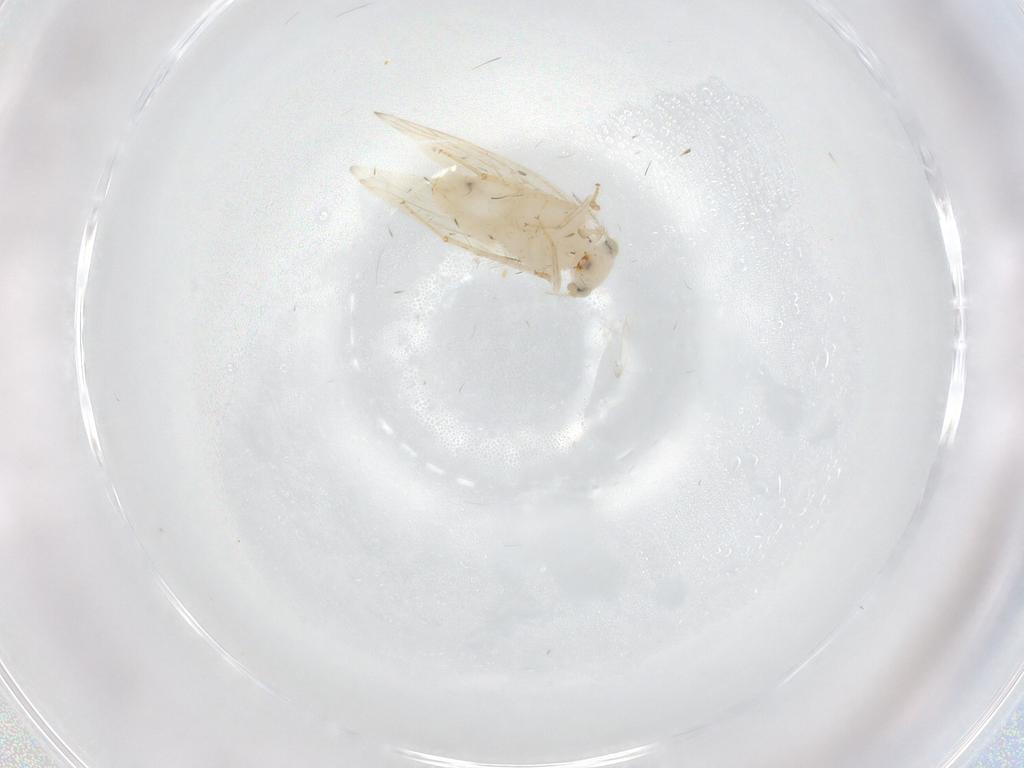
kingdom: Animalia
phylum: Arthropoda
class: Insecta
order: Psocodea
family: Lepidopsocidae
